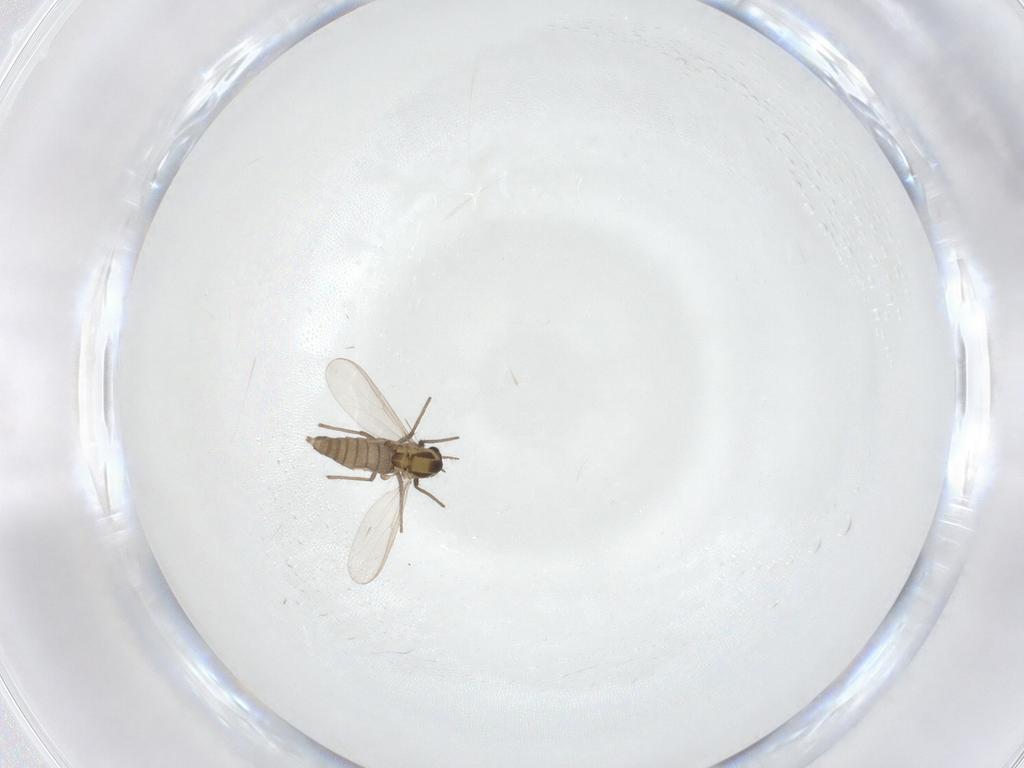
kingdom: Animalia
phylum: Arthropoda
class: Insecta
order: Diptera
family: Sciaridae
